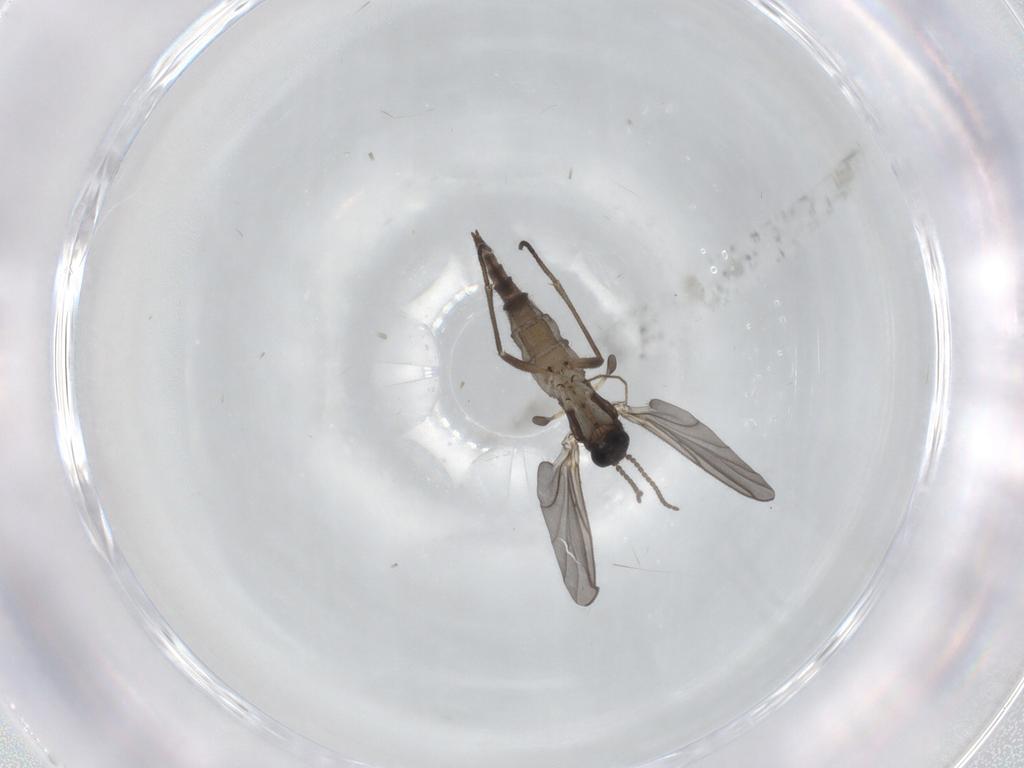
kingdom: Animalia
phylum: Arthropoda
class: Insecta
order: Diptera
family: Sciaridae
